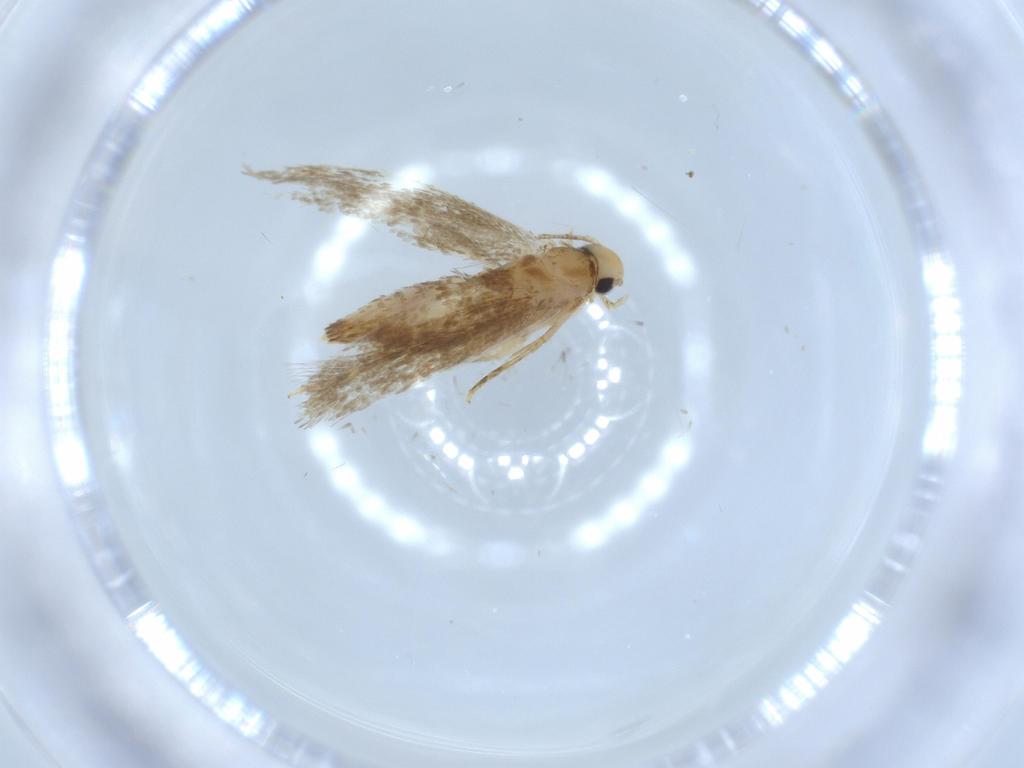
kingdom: Animalia
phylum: Arthropoda
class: Insecta
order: Lepidoptera
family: Tineidae
